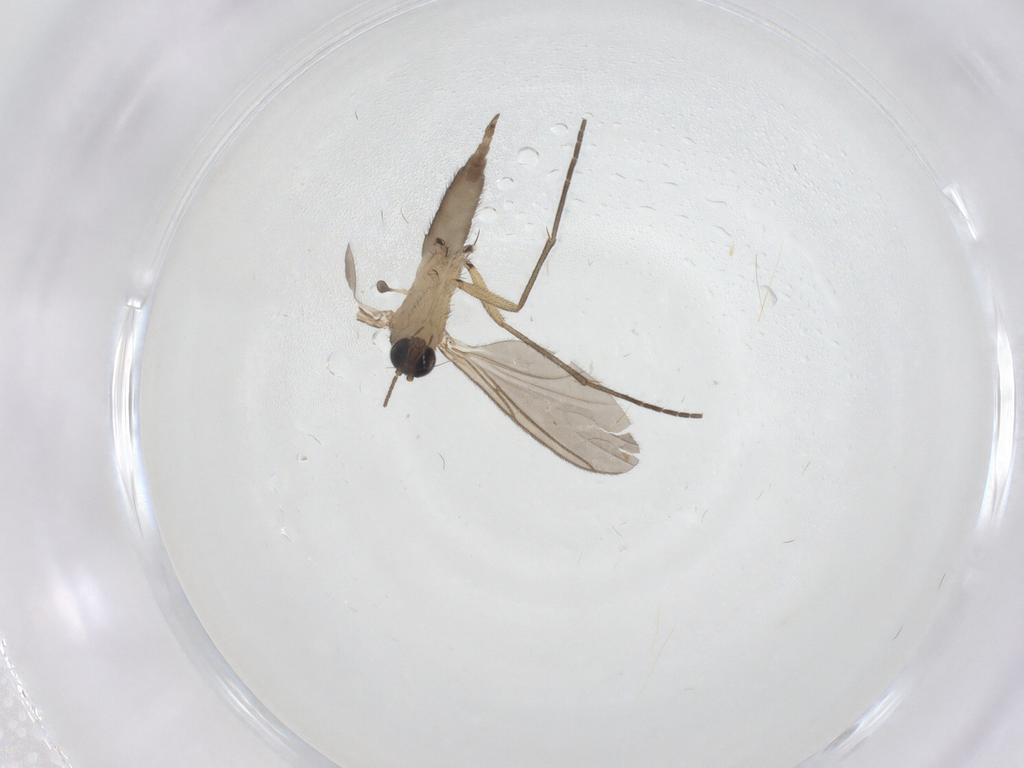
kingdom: Animalia
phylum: Arthropoda
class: Insecta
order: Diptera
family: Sciaridae
